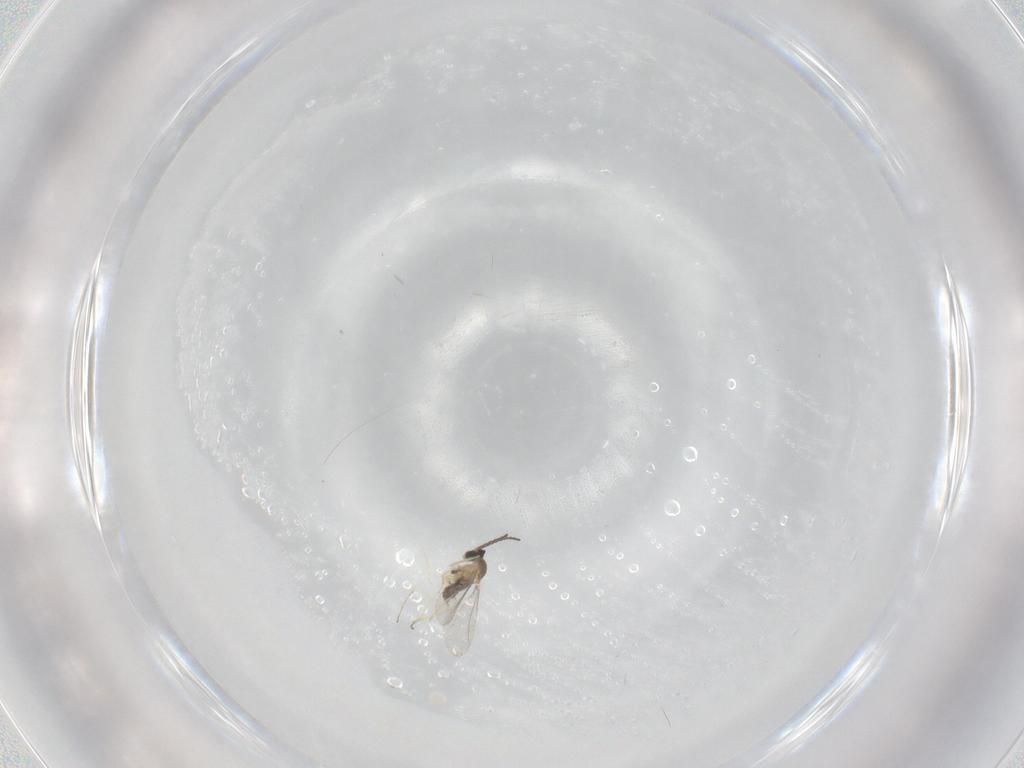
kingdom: Animalia
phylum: Arthropoda
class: Insecta
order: Diptera
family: Cecidomyiidae
